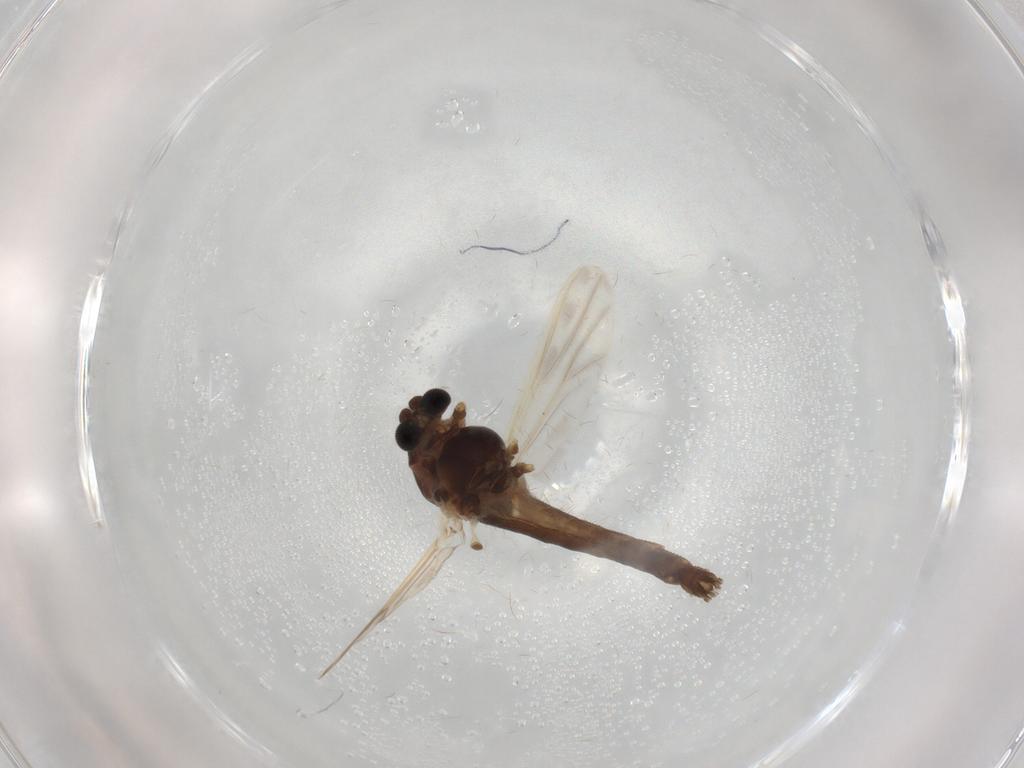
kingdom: Animalia
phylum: Arthropoda
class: Insecta
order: Diptera
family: Chironomidae
